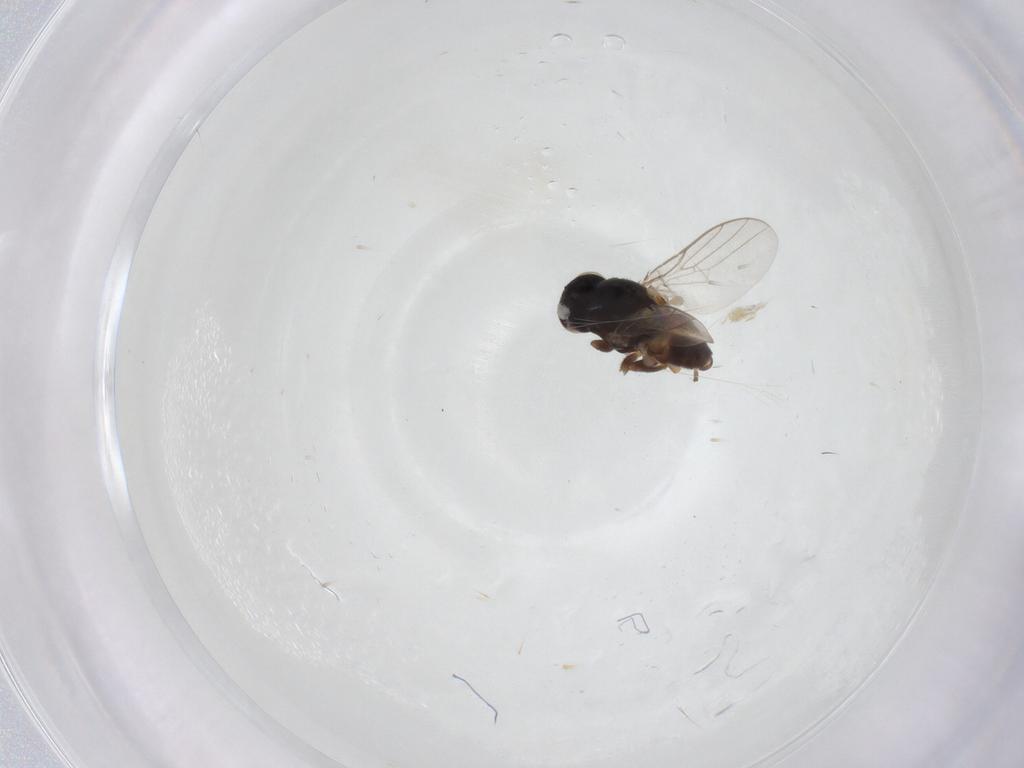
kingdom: Animalia
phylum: Arthropoda
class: Insecta
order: Diptera
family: Chloropidae
